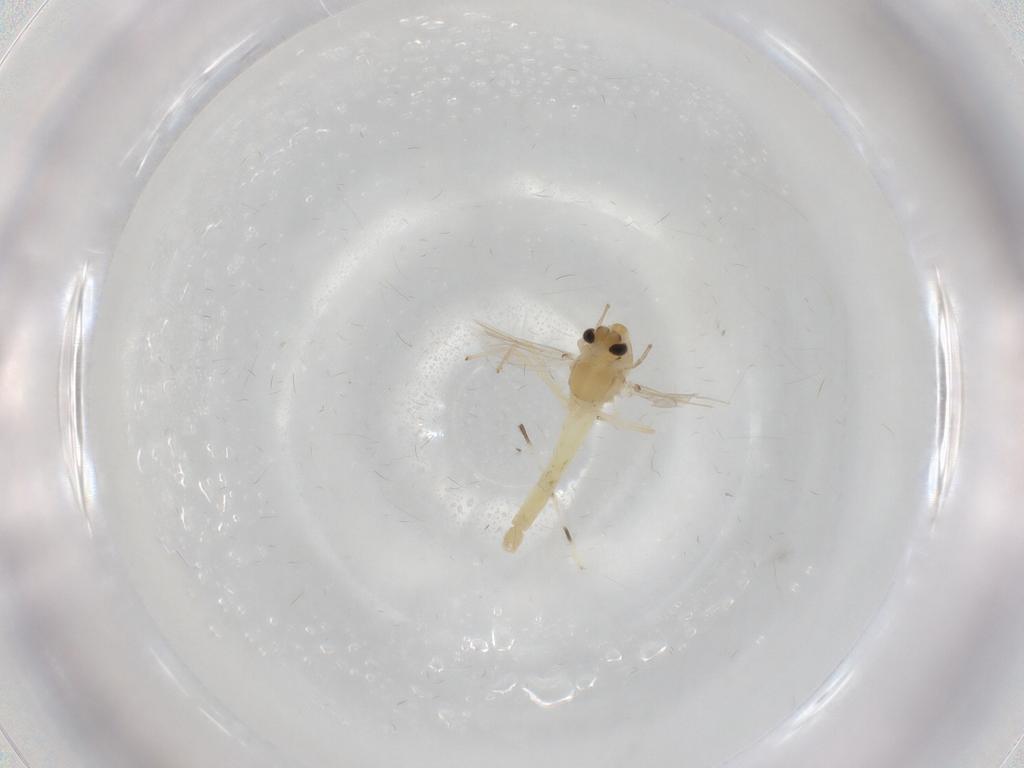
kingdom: Animalia
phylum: Arthropoda
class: Insecta
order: Diptera
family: Chironomidae
